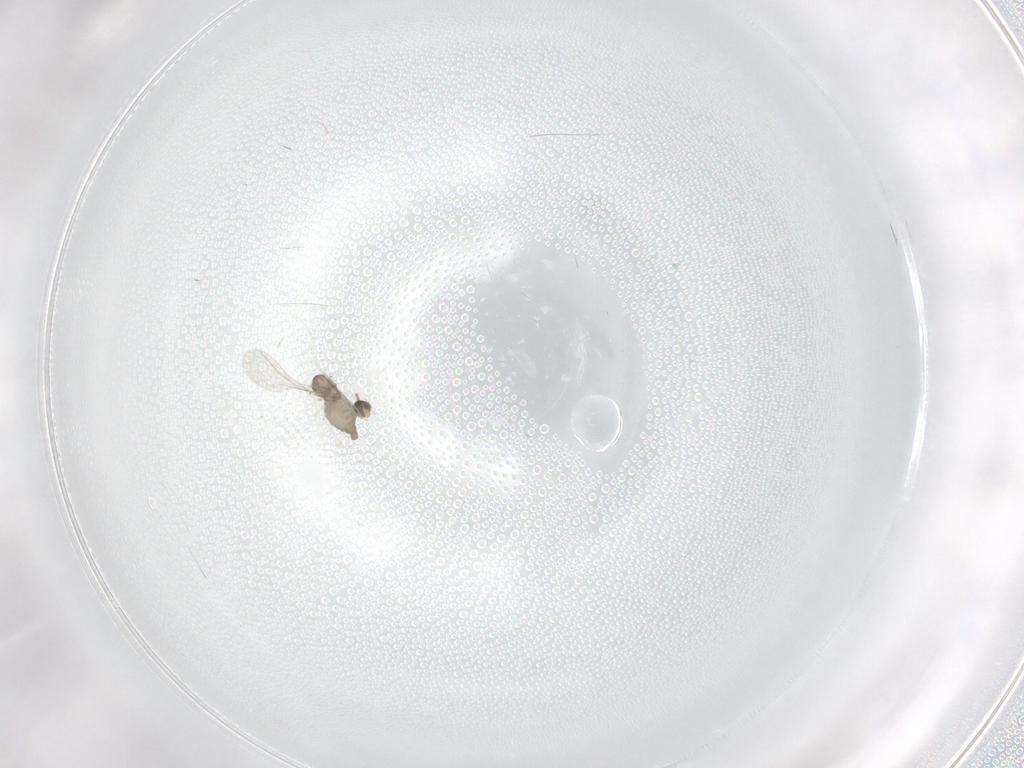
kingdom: Animalia
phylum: Arthropoda
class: Insecta
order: Diptera
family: Cecidomyiidae
